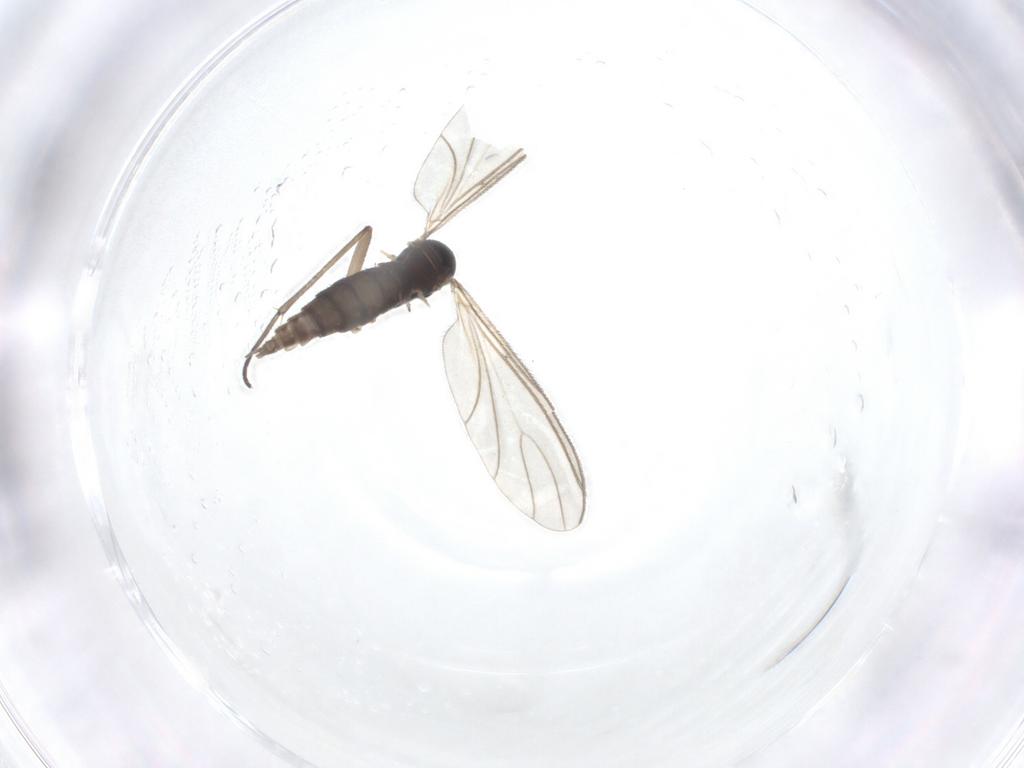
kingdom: Animalia
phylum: Arthropoda
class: Insecta
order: Diptera
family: Sciaridae
